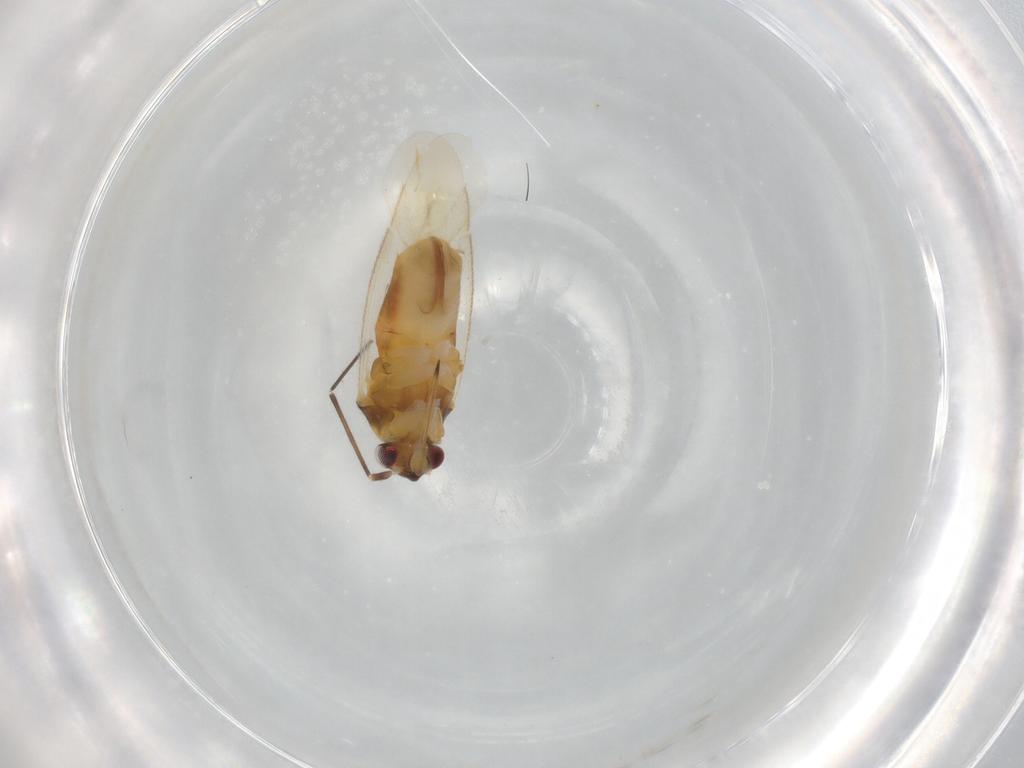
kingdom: Animalia
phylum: Arthropoda
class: Insecta
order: Hemiptera
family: Miridae
